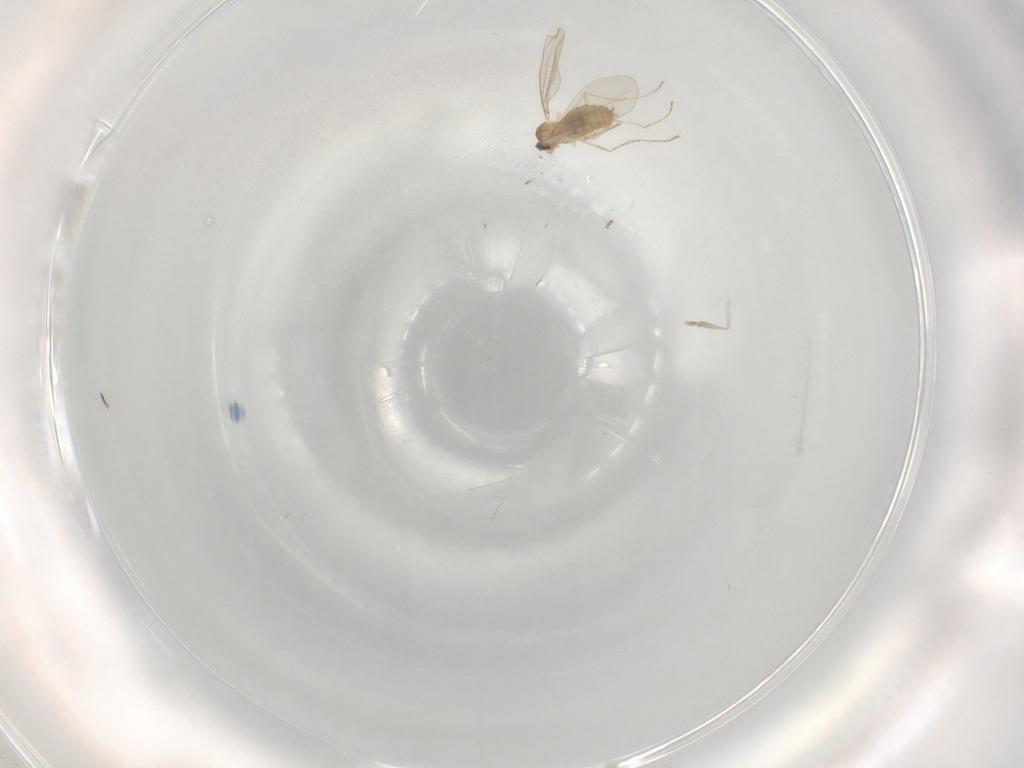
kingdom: Animalia
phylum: Arthropoda
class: Insecta
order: Diptera
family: Cecidomyiidae
